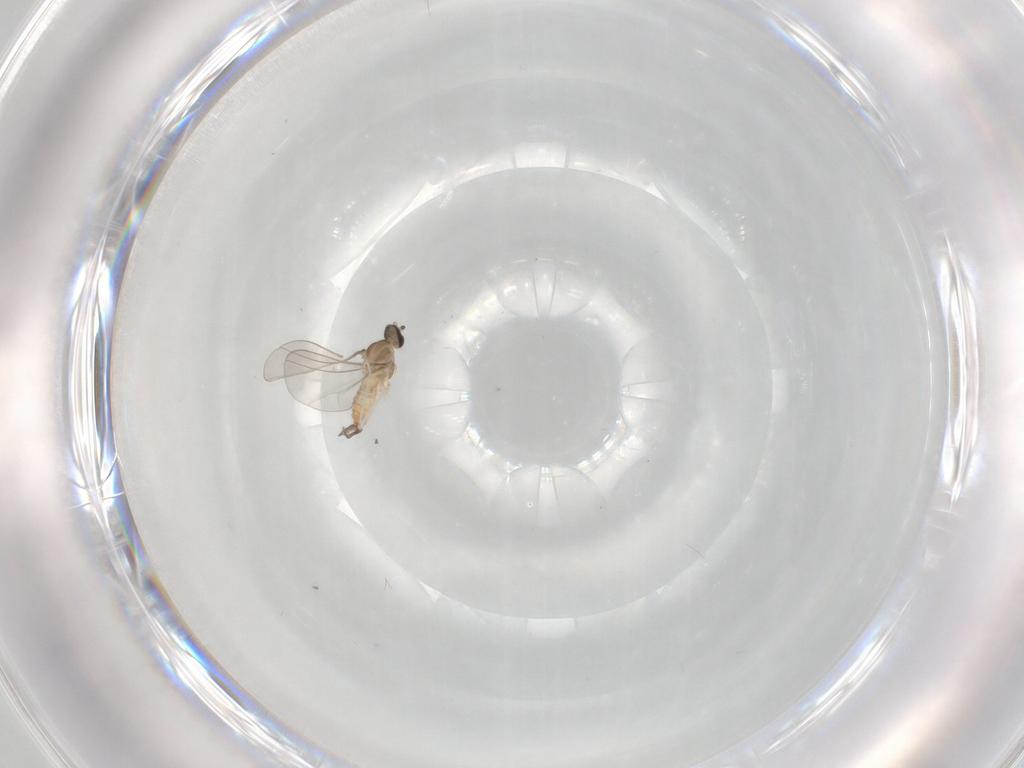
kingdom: Animalia
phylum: Arthropoda
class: Insecta
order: Diptera
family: Cecidomyiidae
